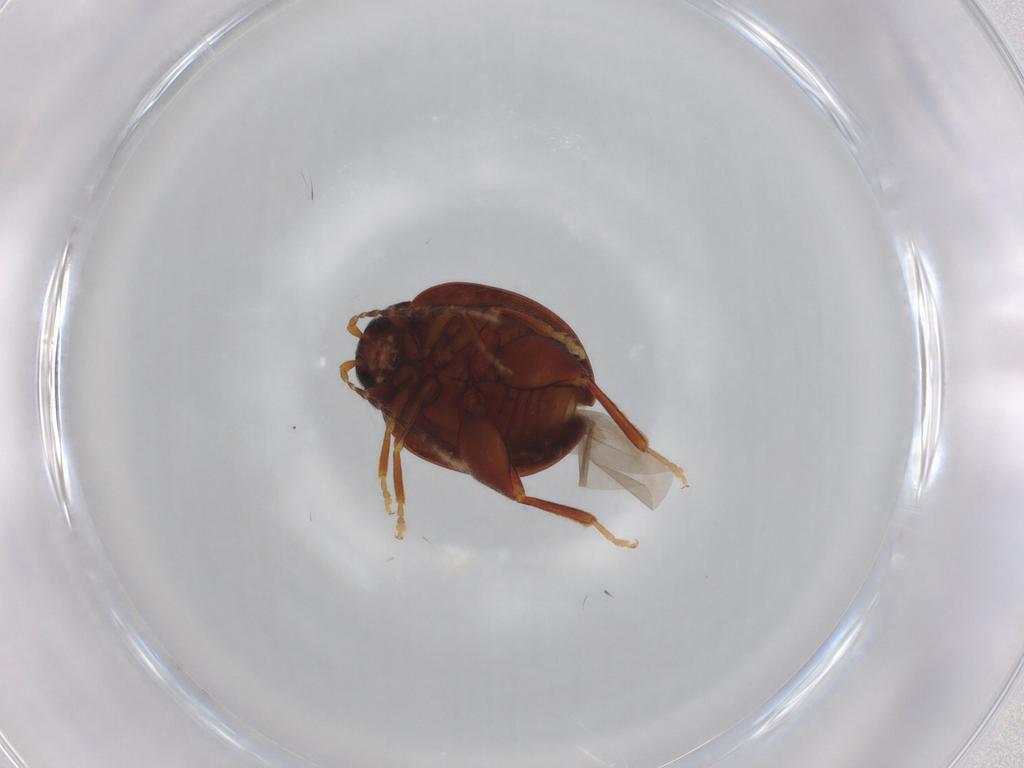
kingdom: Animalia
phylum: Arthropoda
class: Insecta
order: Coleoptera
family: Chrysomelidae
